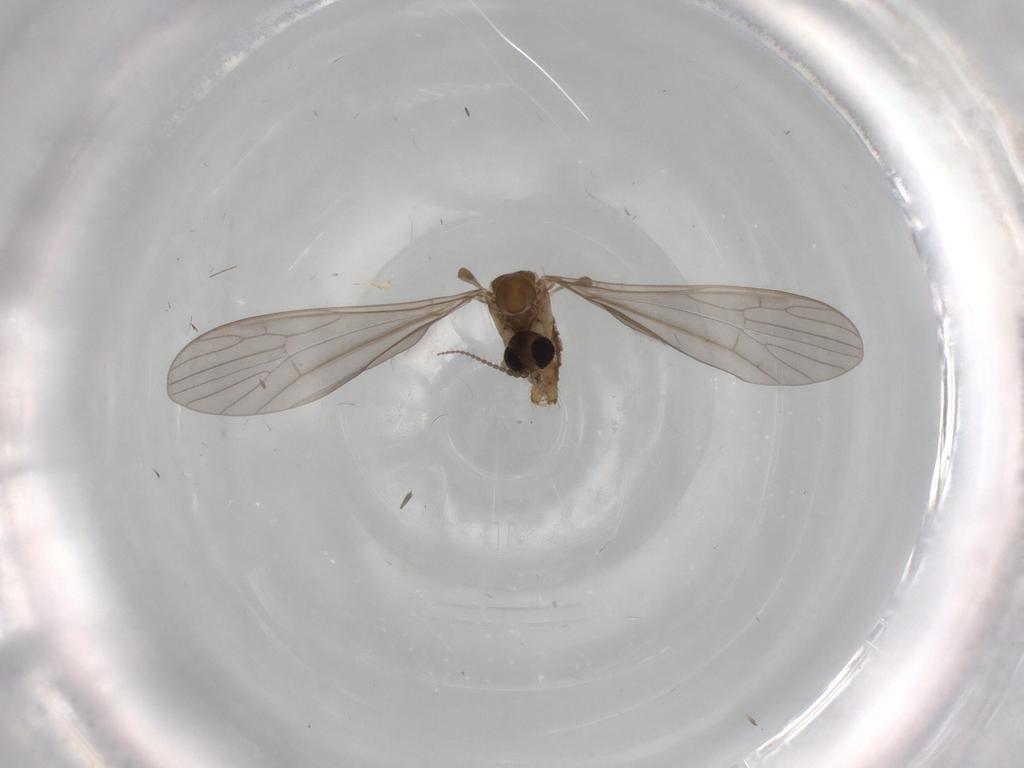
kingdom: Animalia
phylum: Arthropoda
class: Insecta
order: Diptera
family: Limoniidae
